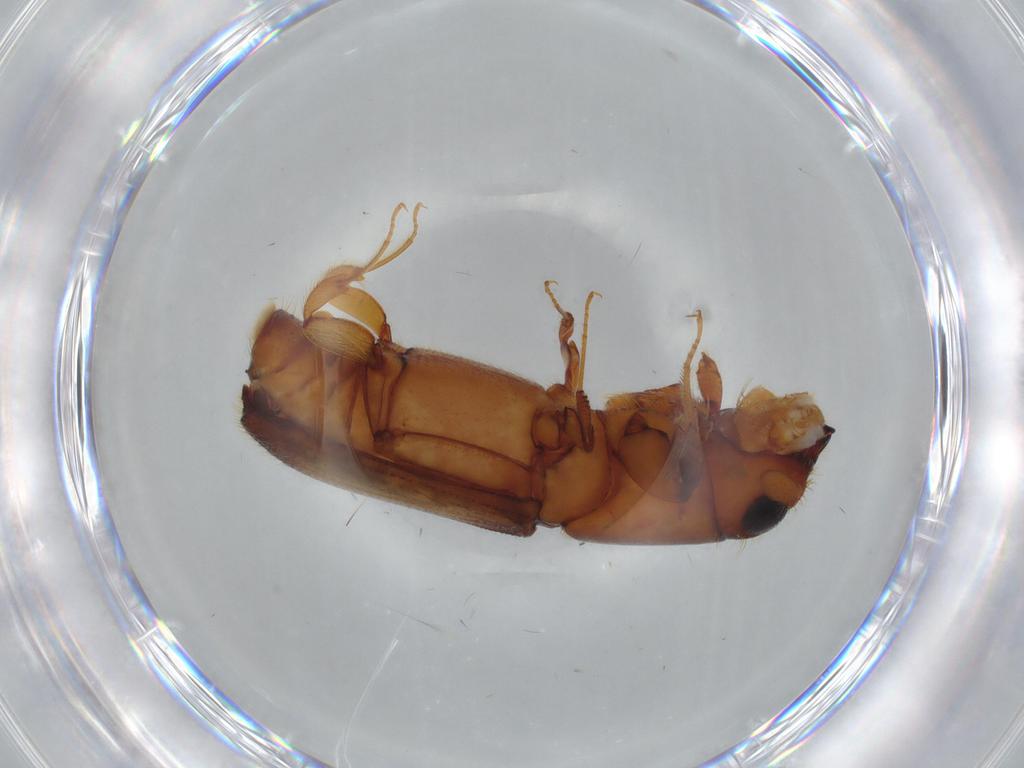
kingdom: Animalia
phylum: Arthropoda
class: Insecta
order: Coleoptera
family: Curculionidae
